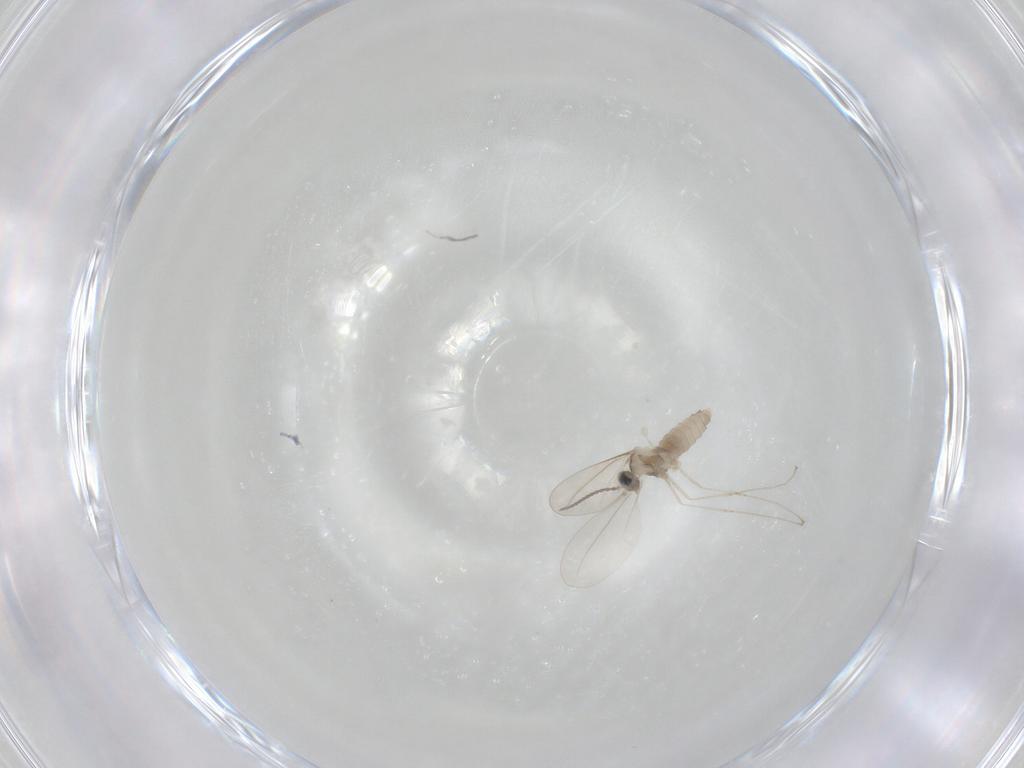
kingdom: Animalia
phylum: Arthropoda
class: Insecta
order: Diptera
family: Cecidomyiidae
